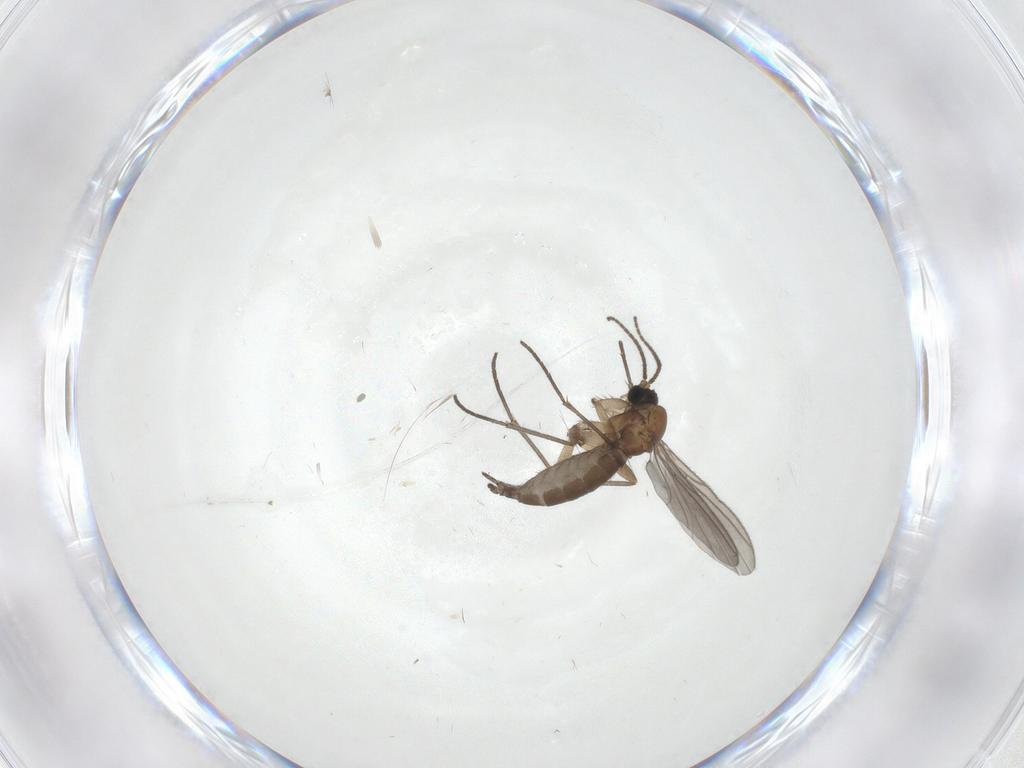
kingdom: Animalia
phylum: Arthropoda
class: Insecta
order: Diptera
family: Sciaridae
